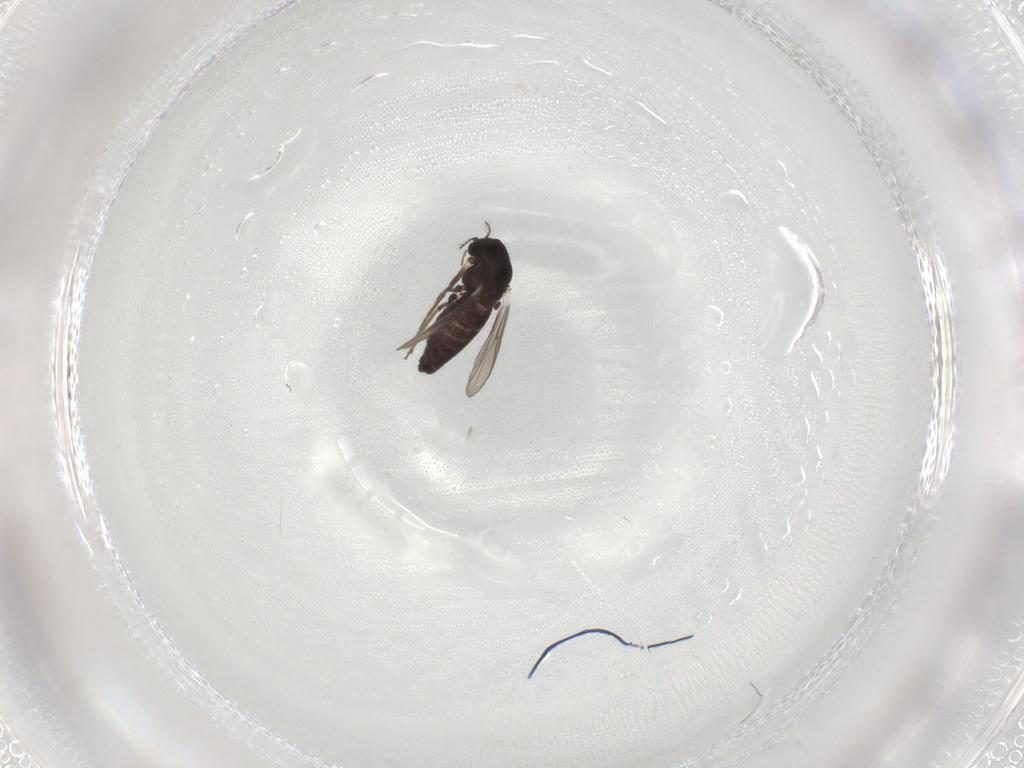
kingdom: Animalia
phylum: Arthropoda
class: Insecta
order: Diptera
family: Chironomidae
